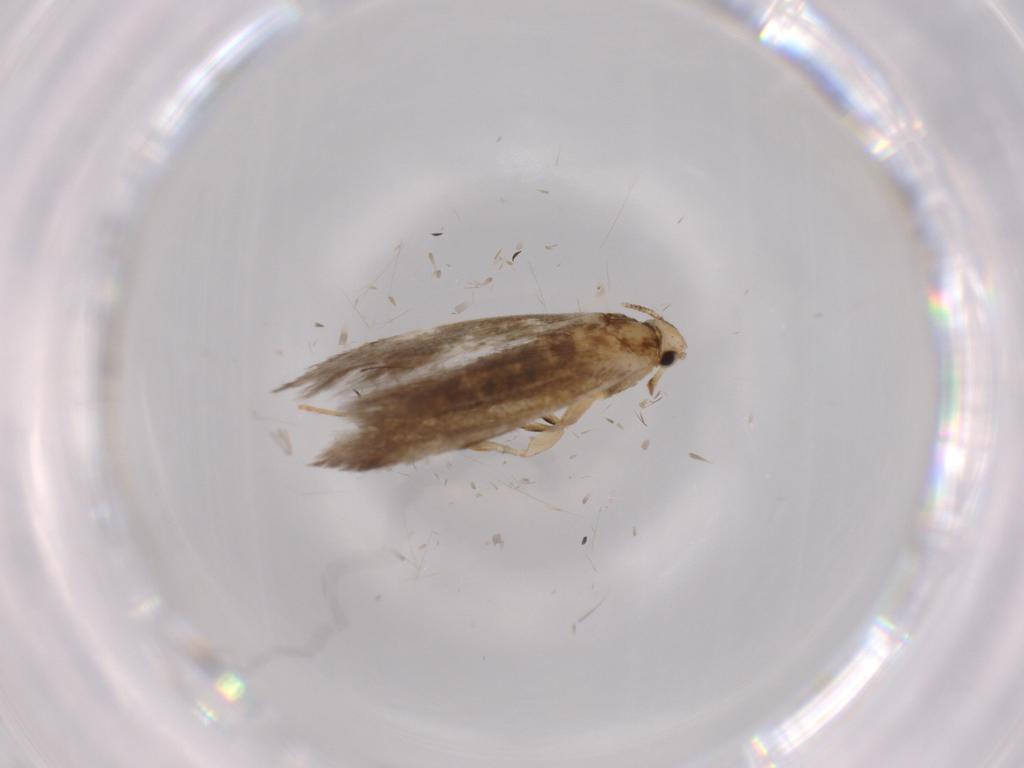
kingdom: Animalia
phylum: Arthropoda
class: Insecta
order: Lepidoptera
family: Tineidae
